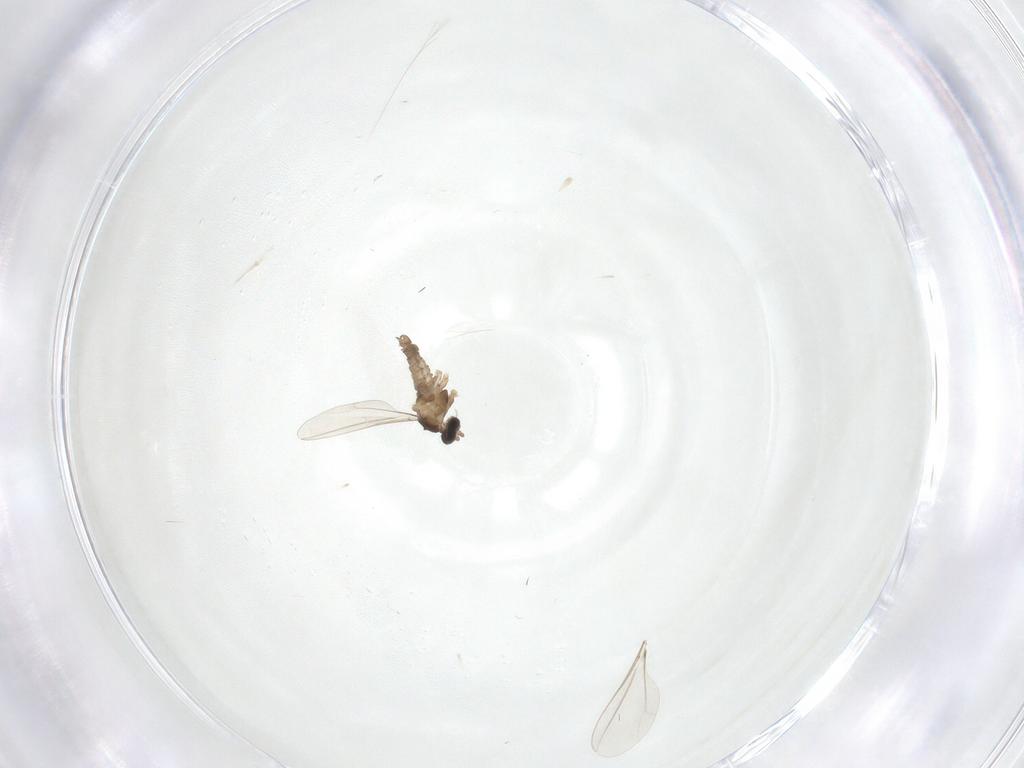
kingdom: Animalia
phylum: Arthropoda
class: Insecta
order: Diptera
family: Cecidomyiidae
